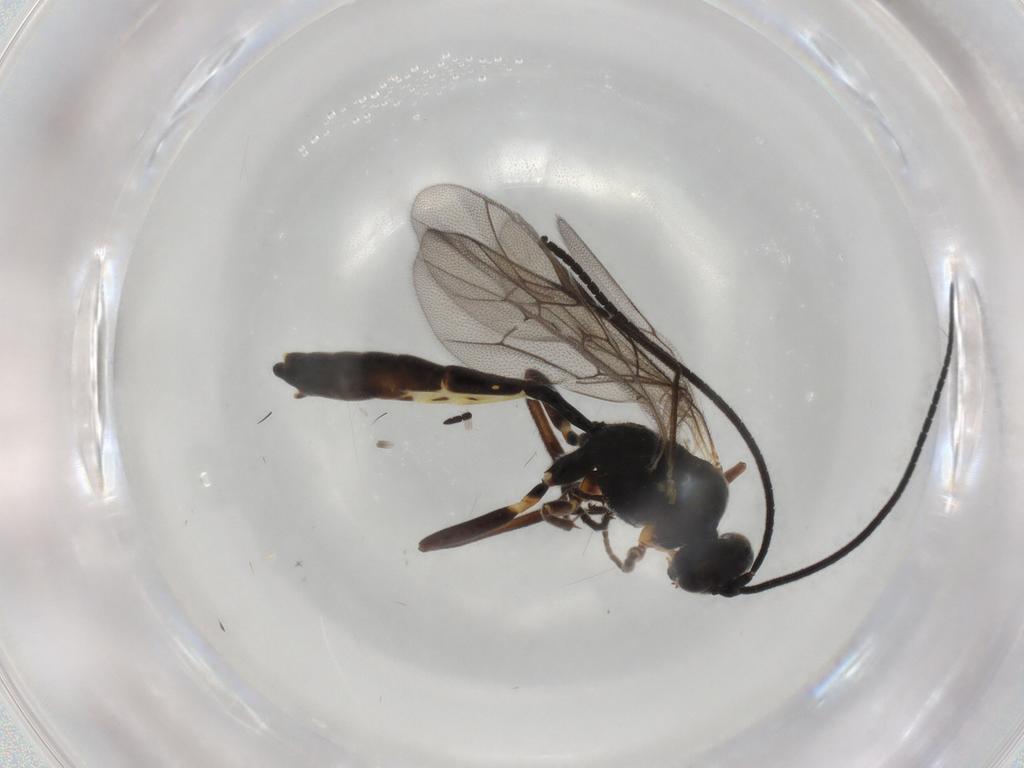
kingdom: Animalia
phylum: Arthropoda
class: Insecta
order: Hymenoptera
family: Ichneumonidae
